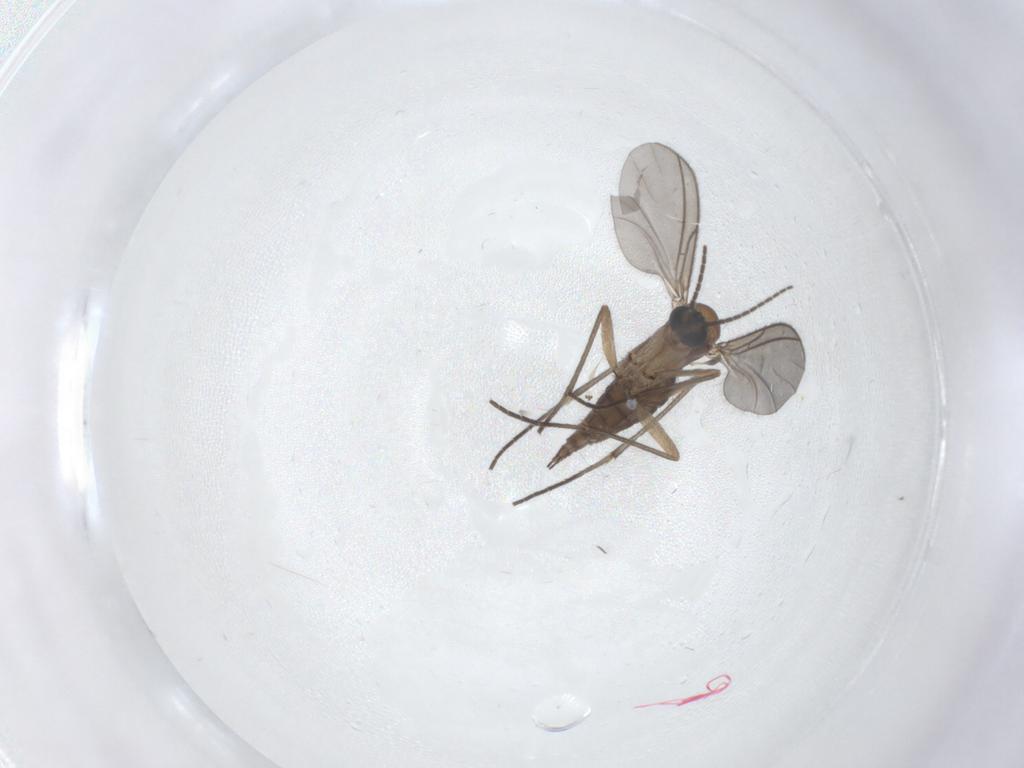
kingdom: Animalia
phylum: Arthropoda
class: Insecta
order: Diptera
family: Sciaridae
